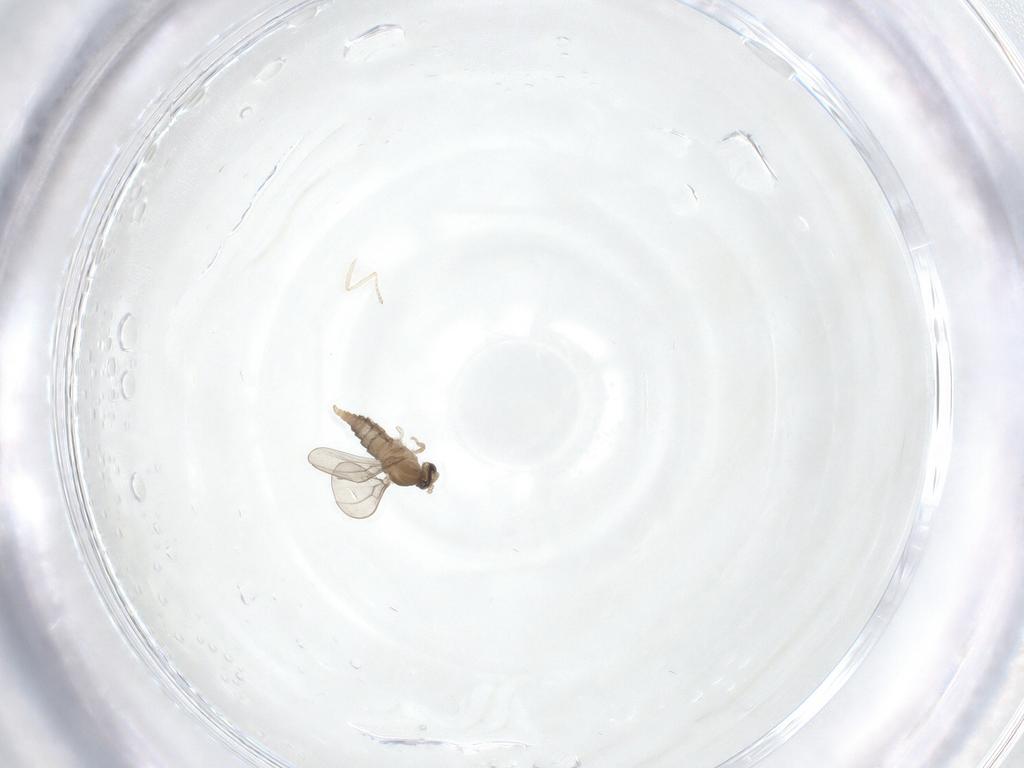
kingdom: Animalia
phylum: Arthropoda
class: Insecta
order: Diptera
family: Cecidomyiidae
